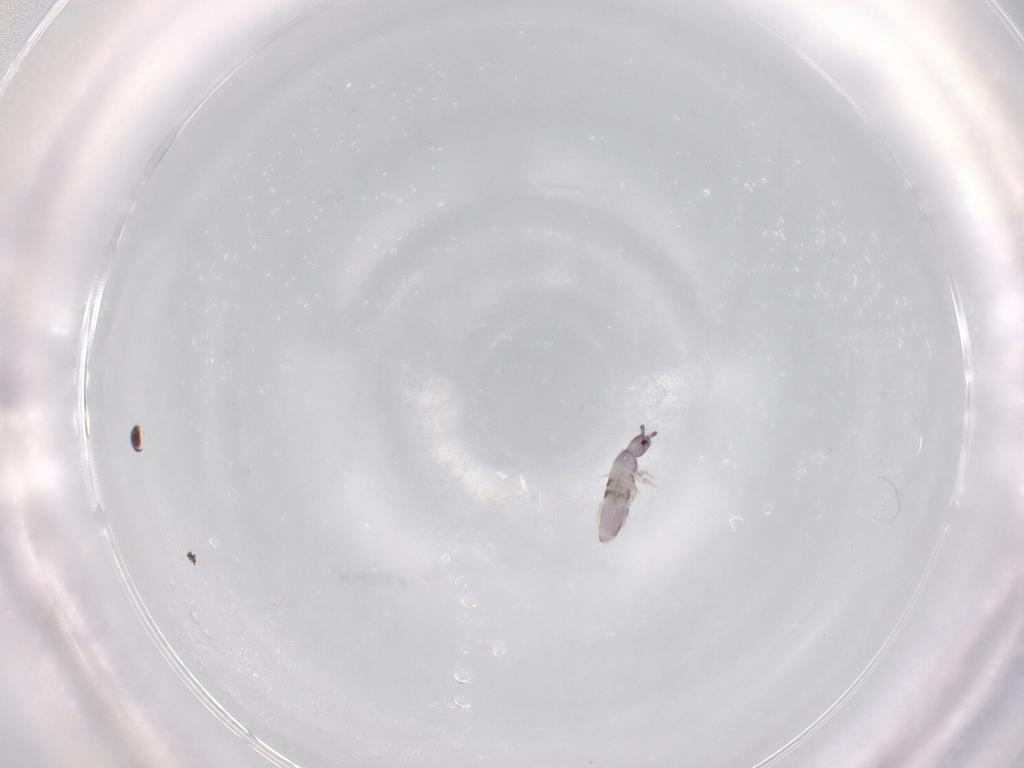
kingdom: Animalia
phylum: Arthropoda
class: Collembola
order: Entomobryomorpha
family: Entomobryidae
